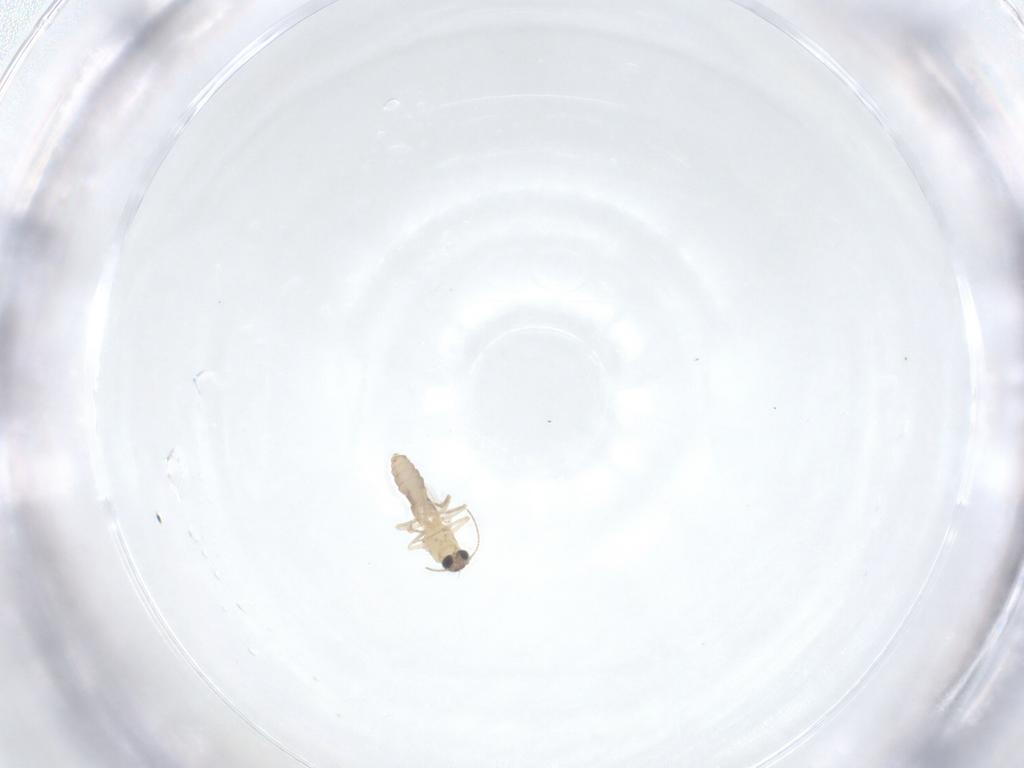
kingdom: Animalia
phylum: Arthropoda
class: Insecta
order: Diptera
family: Ceratopogonidae
